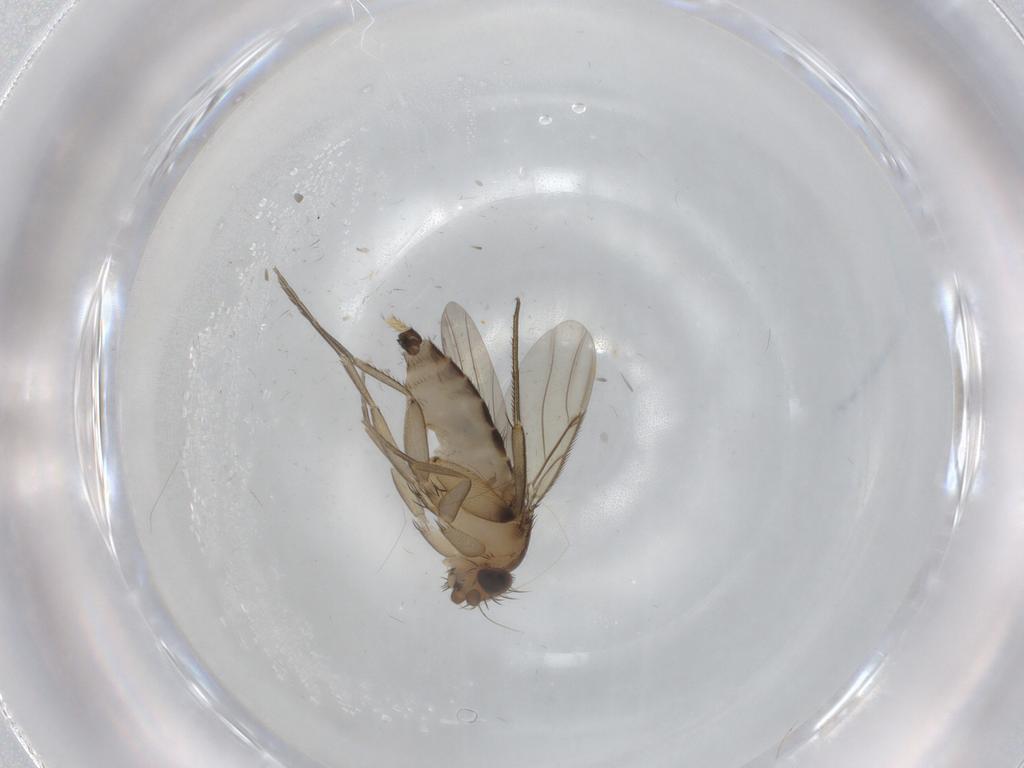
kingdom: Animalia
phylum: Arthropoda
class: Insecta
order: Diptera
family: Phoridae
